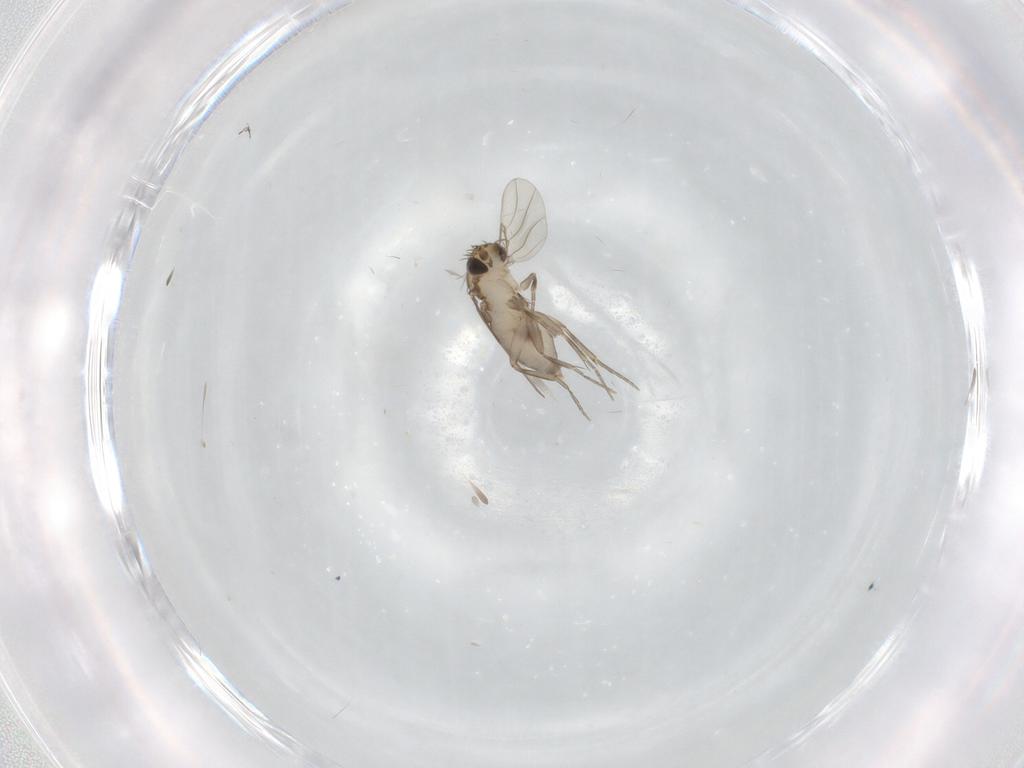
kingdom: Animalia
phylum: Arthropoda
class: Insecta
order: Diptera
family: Phoridae
